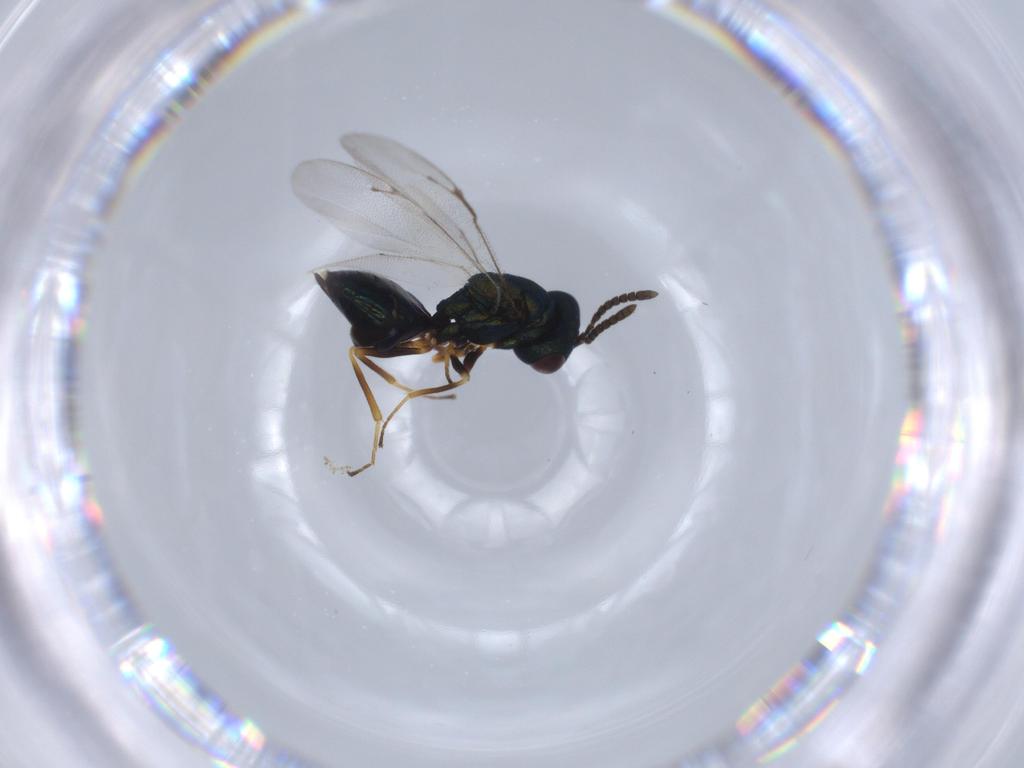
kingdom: Animalia
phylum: Arthropoda
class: Insecta
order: Hymenoptera
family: Pteromalidae
